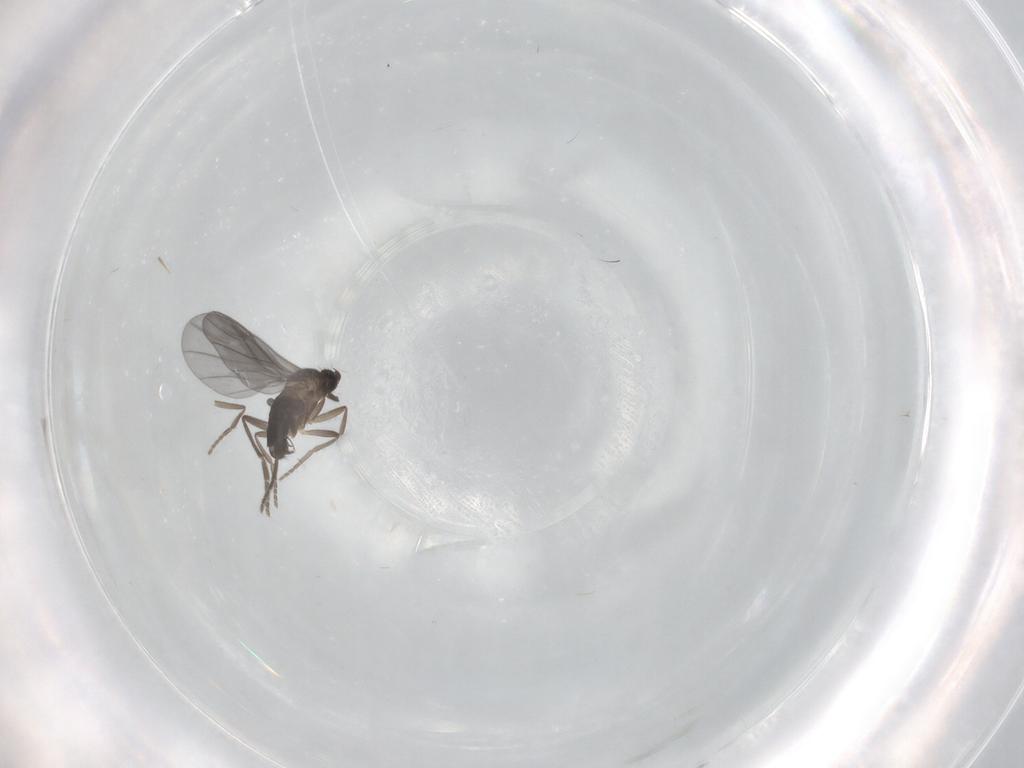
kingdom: Animalia
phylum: Arthropoda
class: Insecta
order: Diptera
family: Phoridae
